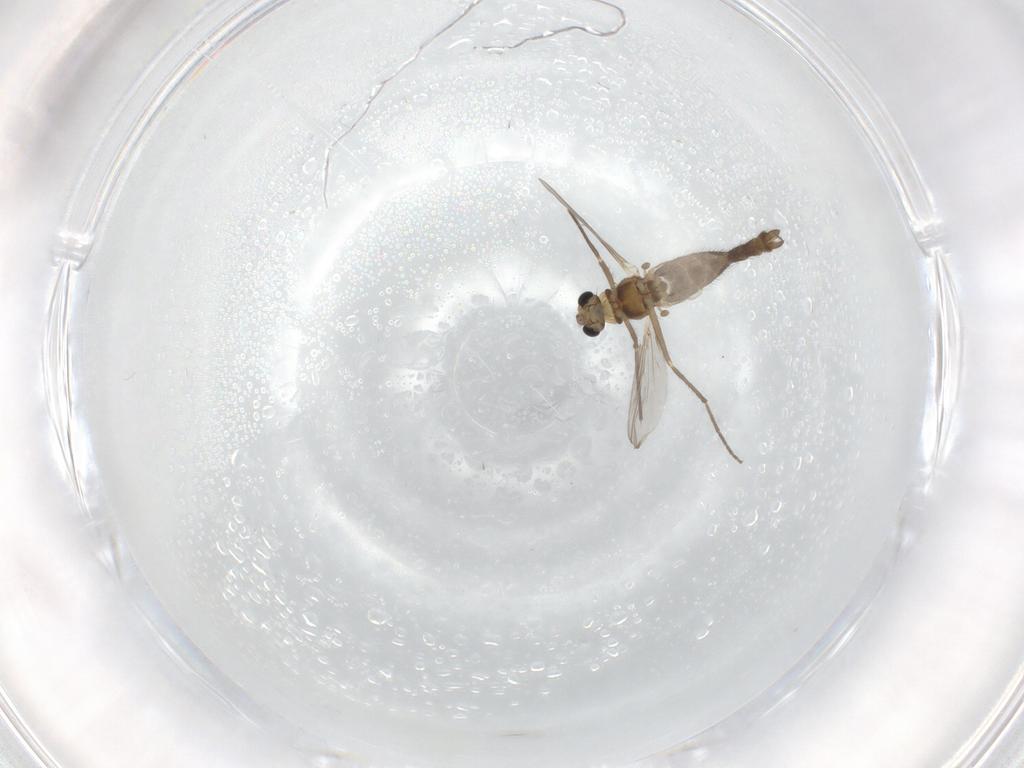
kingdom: Animalia
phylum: Arthropoda
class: Insecta
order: Diptera
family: Chironomidae
